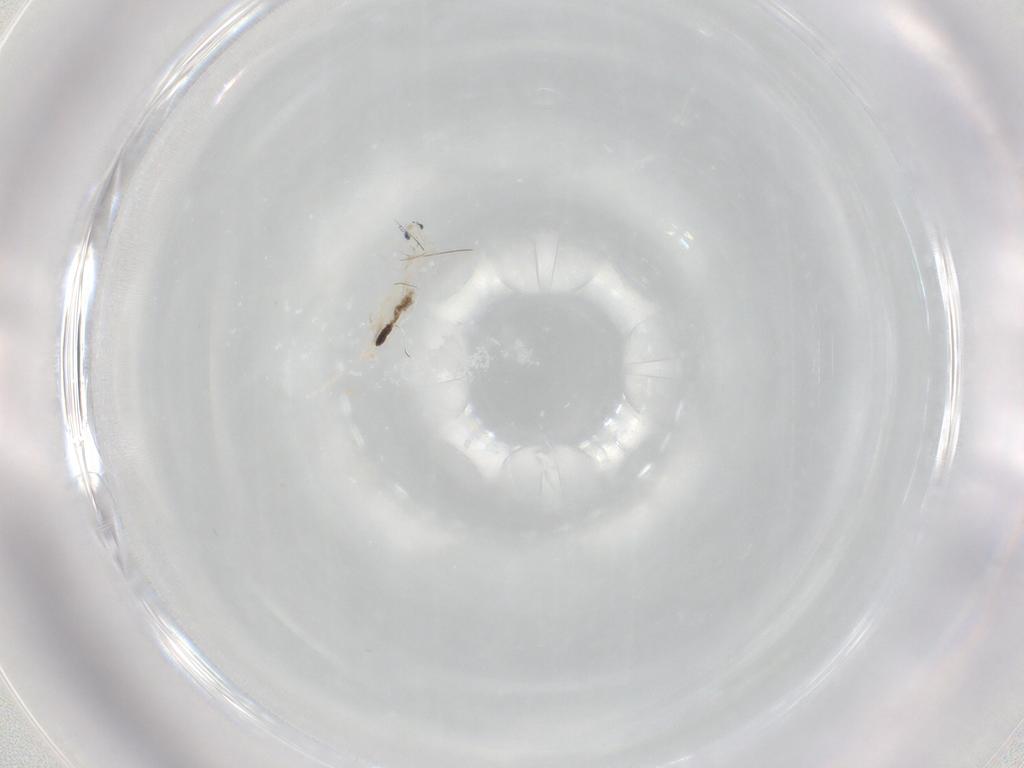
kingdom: Animalia
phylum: Arthropoda
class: Collembola
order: Entomobryomorpha
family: Entomobryidae
